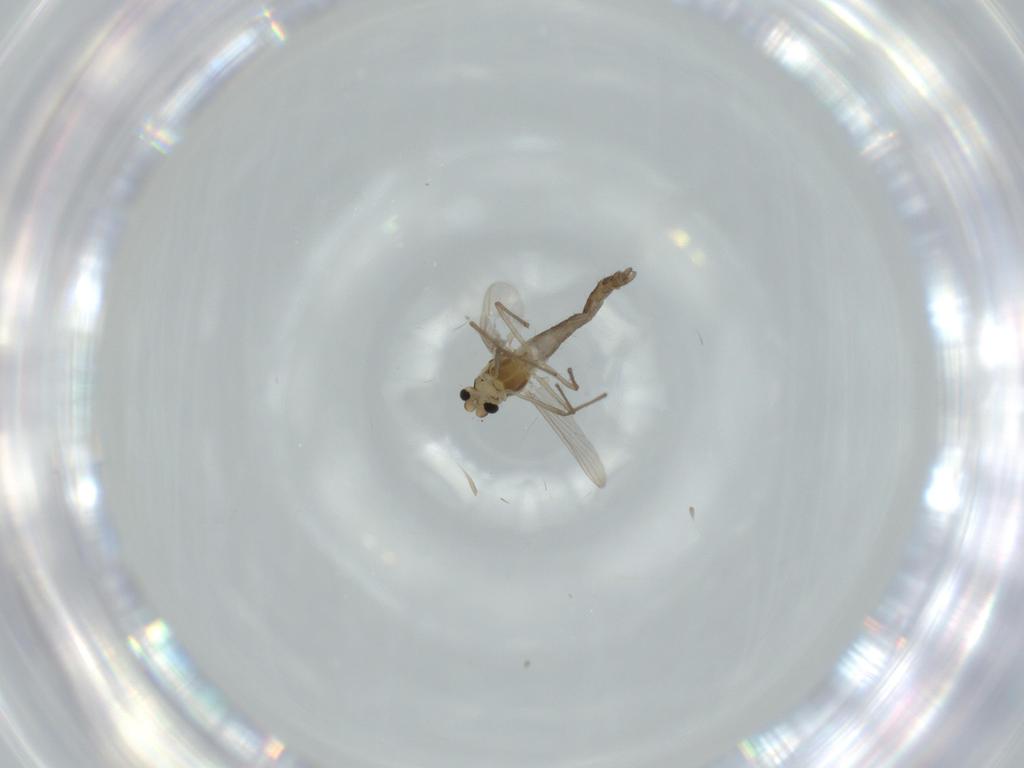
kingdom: Animalia
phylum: Arthropoda
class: Insecta
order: Diptera
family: Chironomidae
